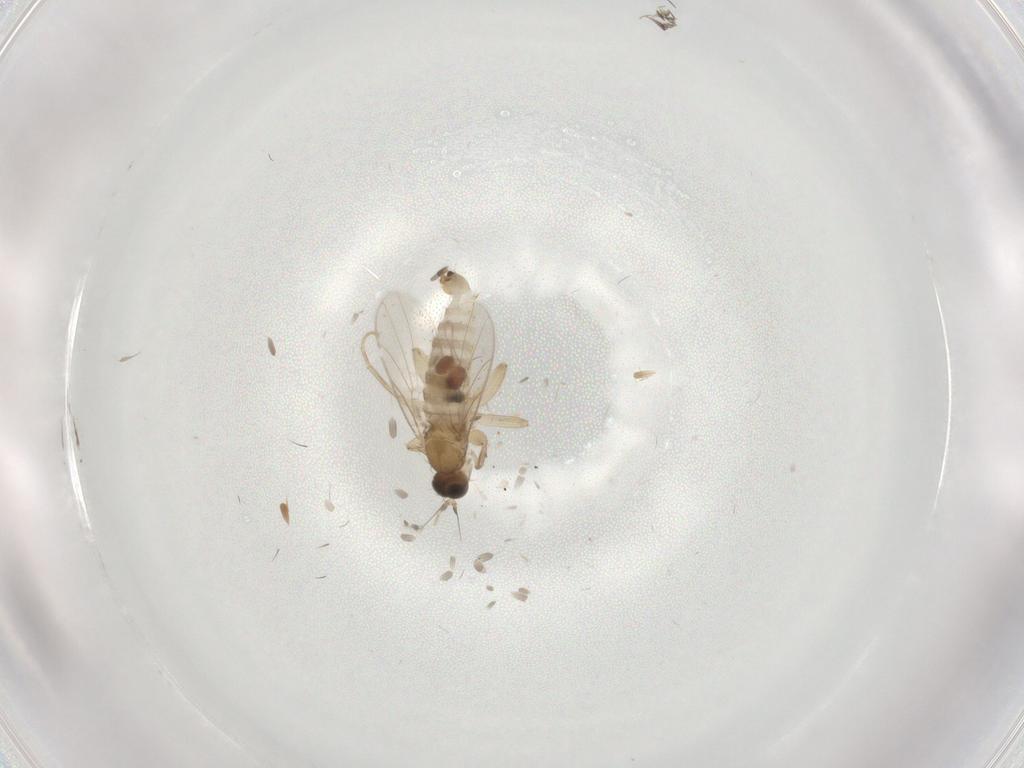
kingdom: Animalia
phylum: Arthropoda
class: Insecta
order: Diptera
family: Hybotidae
